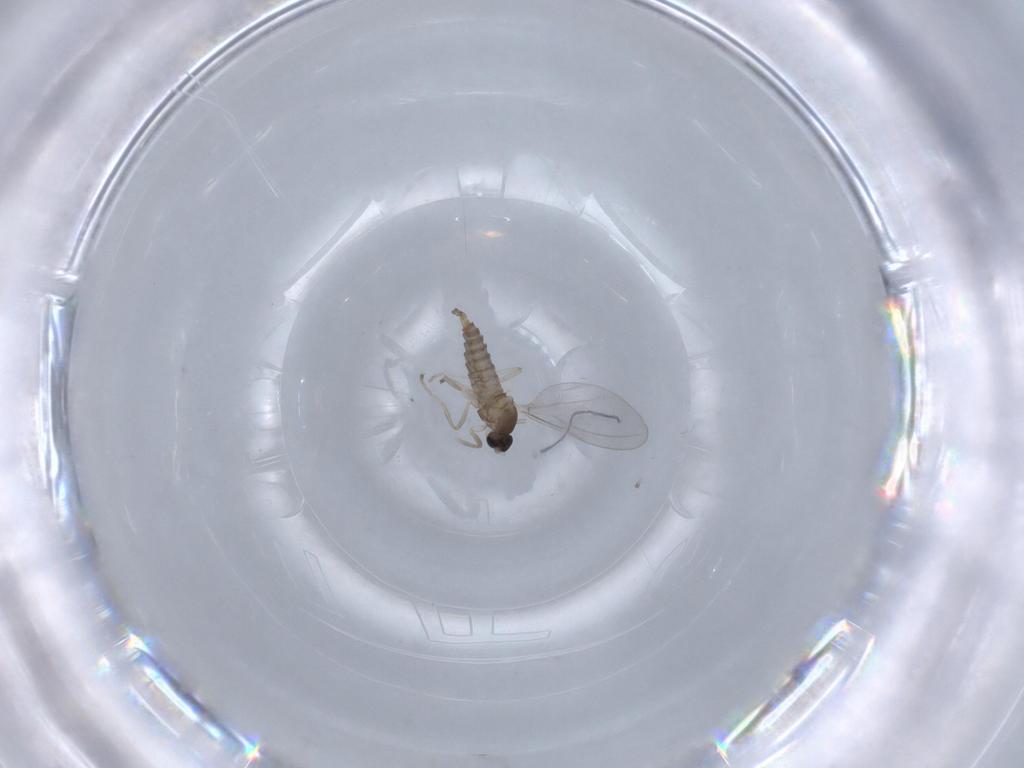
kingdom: Animalia
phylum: Arthropoda
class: Insecta
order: Diptera
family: Cecidomyiidae
